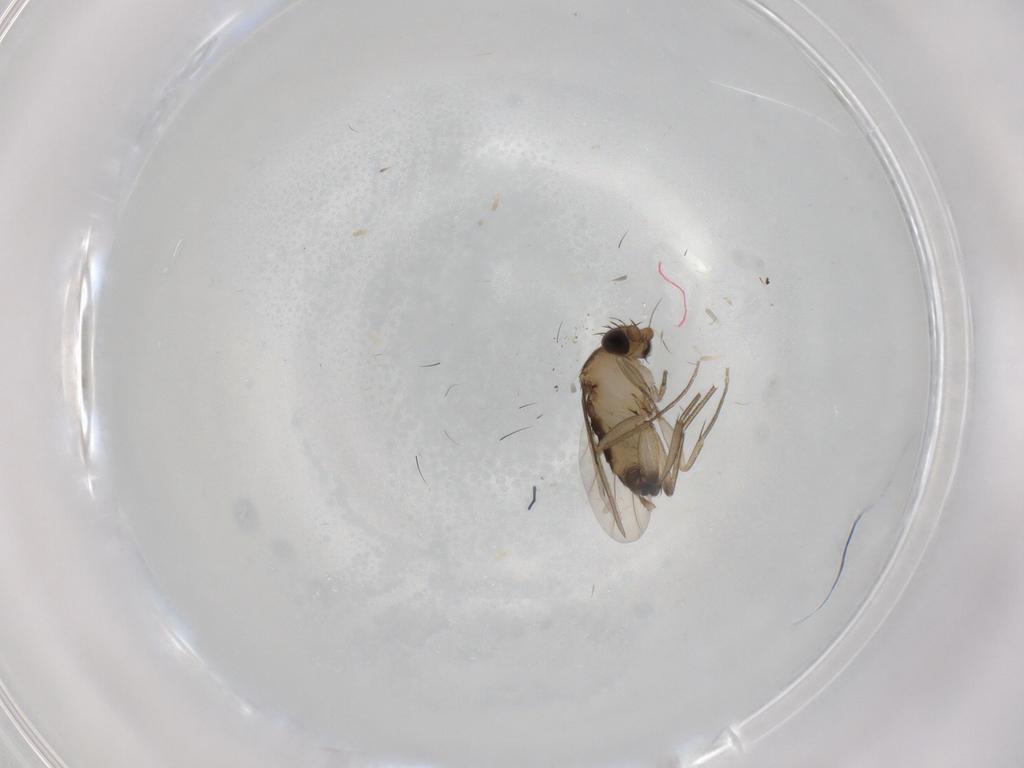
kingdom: Animalia
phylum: Arthropoda
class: Insecta
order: Diptera
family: Phoridae
